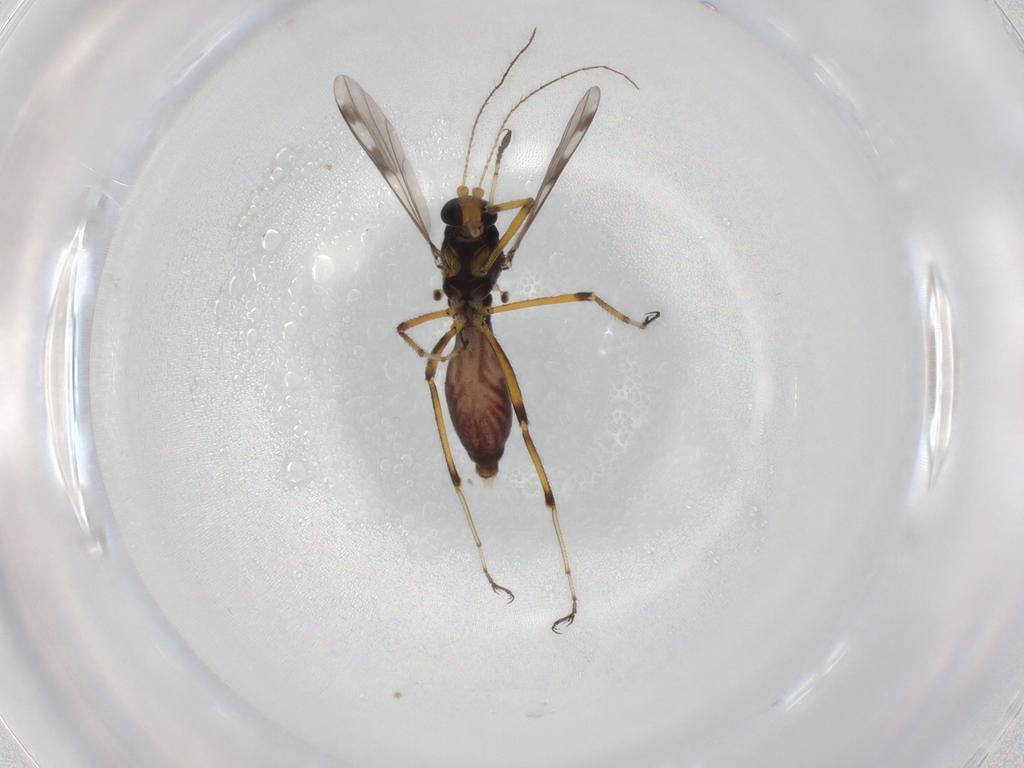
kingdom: Animalia
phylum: Arthropoda
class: Insecta
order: Diptera
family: Ceratopogonidae
